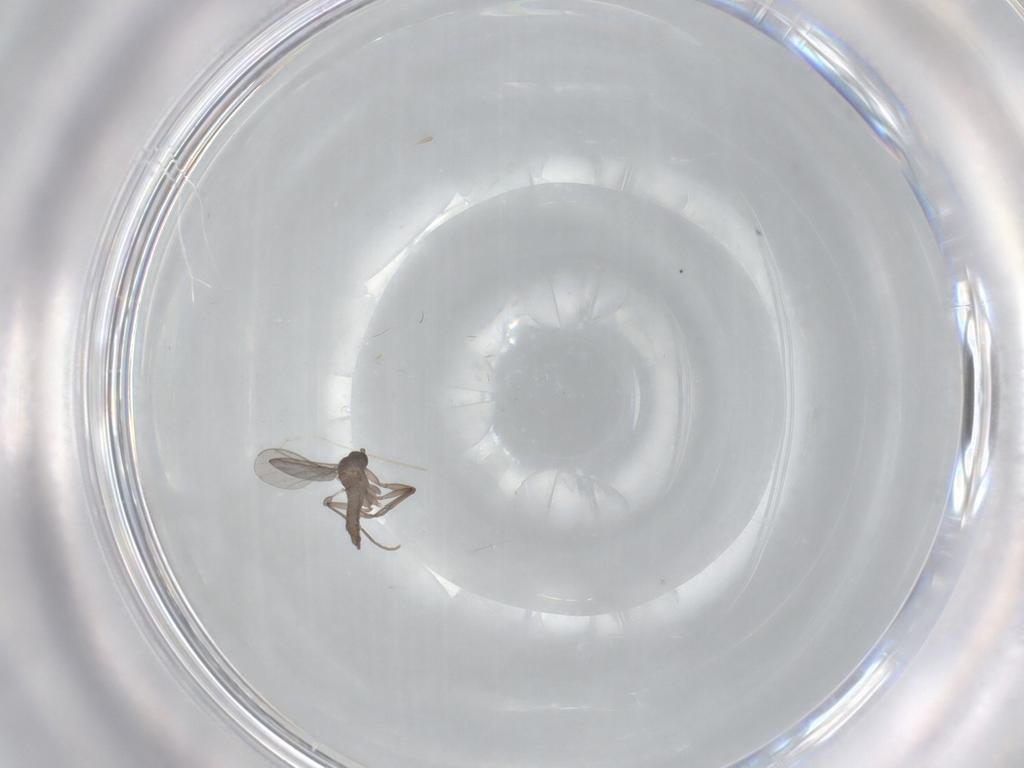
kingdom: Animalia
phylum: Arthropoda
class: Insecta
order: Diptera
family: Sciaridae
